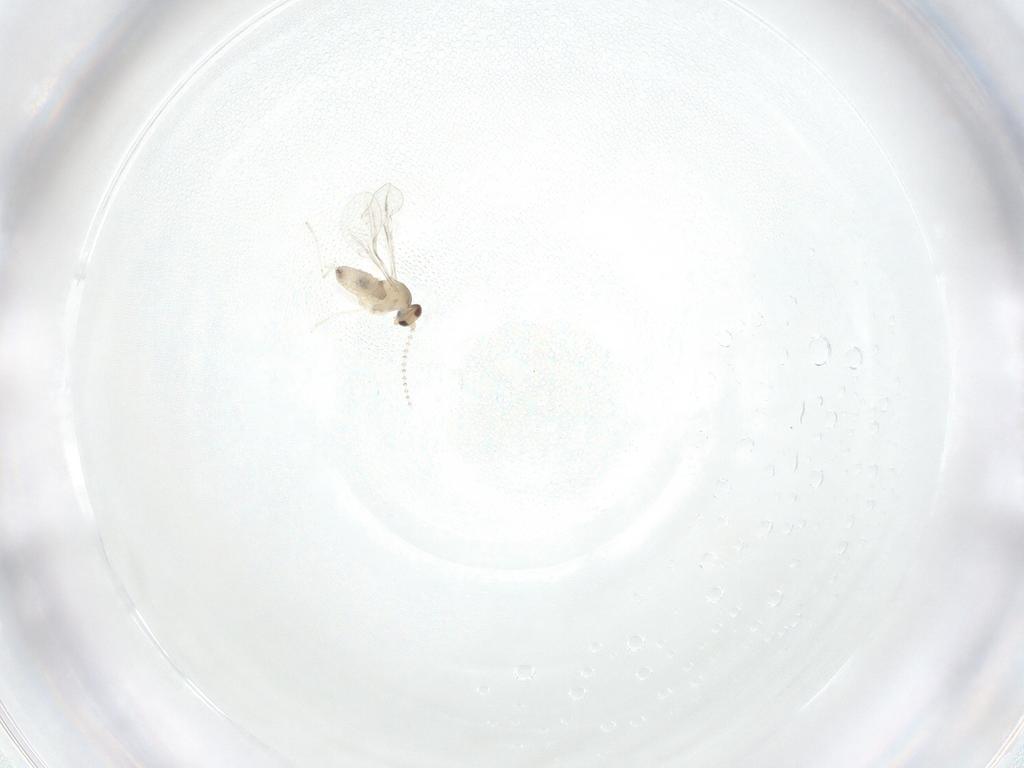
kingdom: Animalia
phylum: Arthropoda
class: Insecta
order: Diptera
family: Cecidomyiidae
